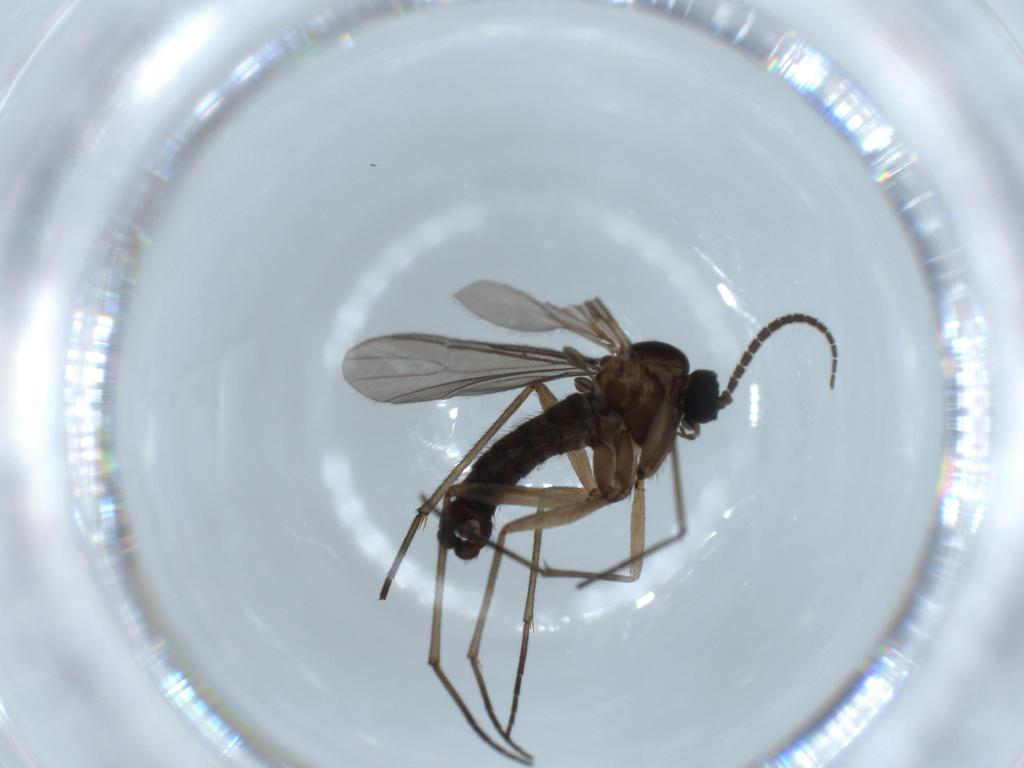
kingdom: Animalia
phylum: Arthropoda
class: Insecta
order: Diptera
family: Sciaridae
